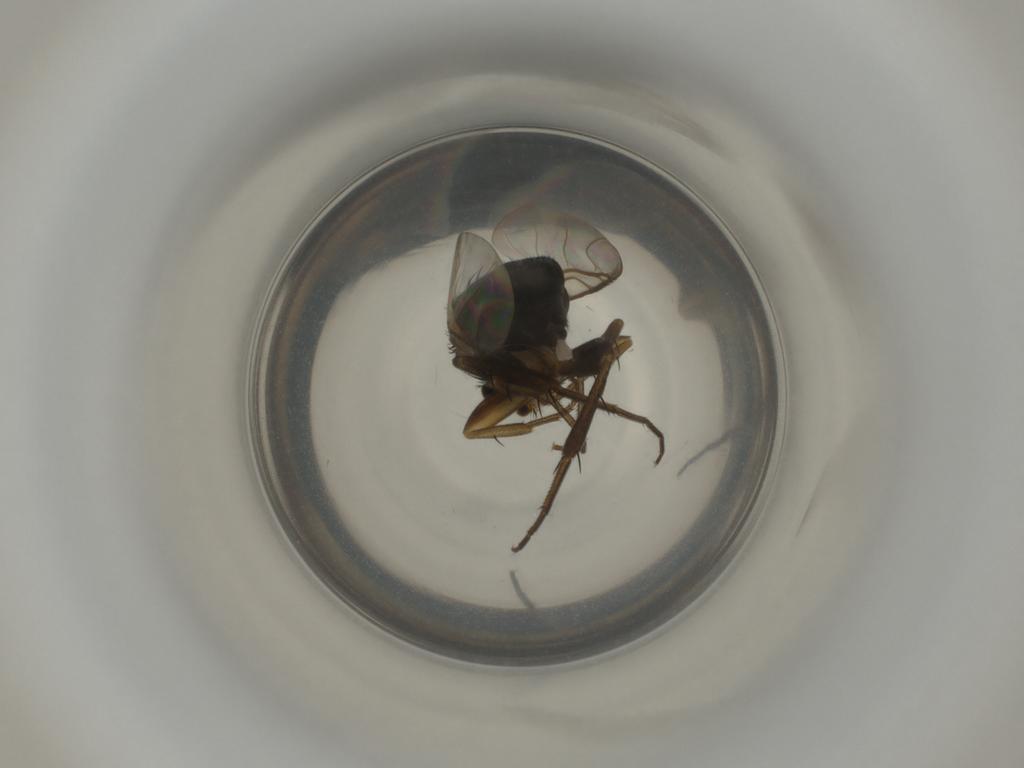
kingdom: Animalia
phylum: Arthropoda
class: Insecta
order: Diptera
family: Phoridae
